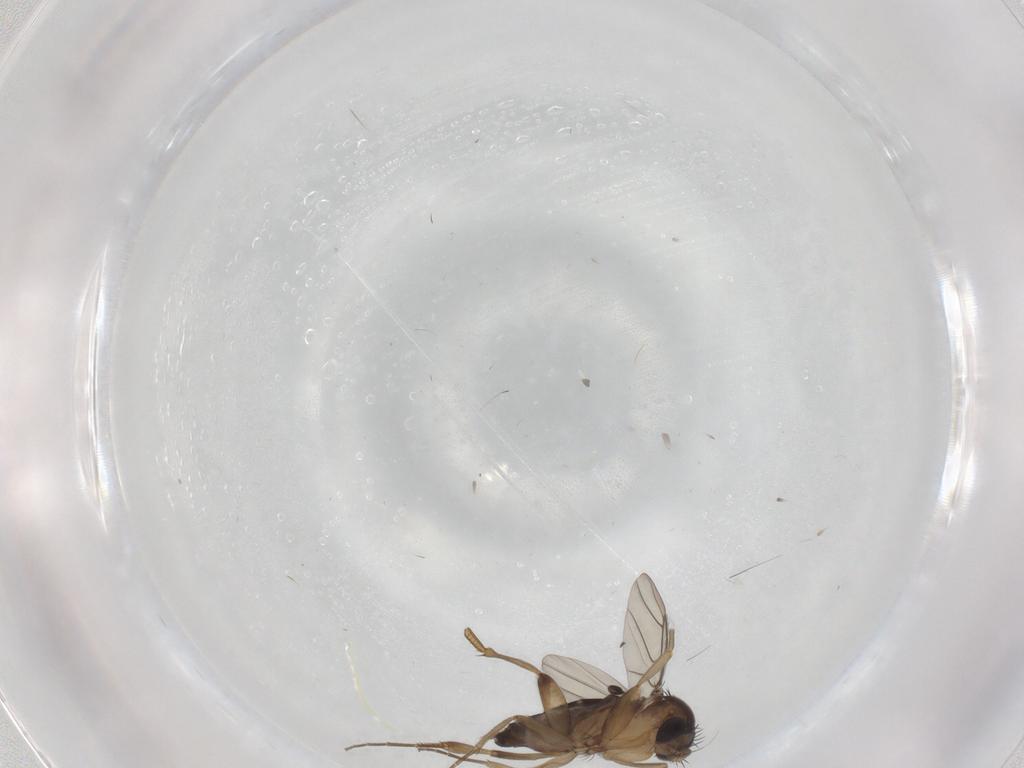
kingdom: Animalia
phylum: Arthropoda
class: Insecta
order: Diptera
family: Phoridae
